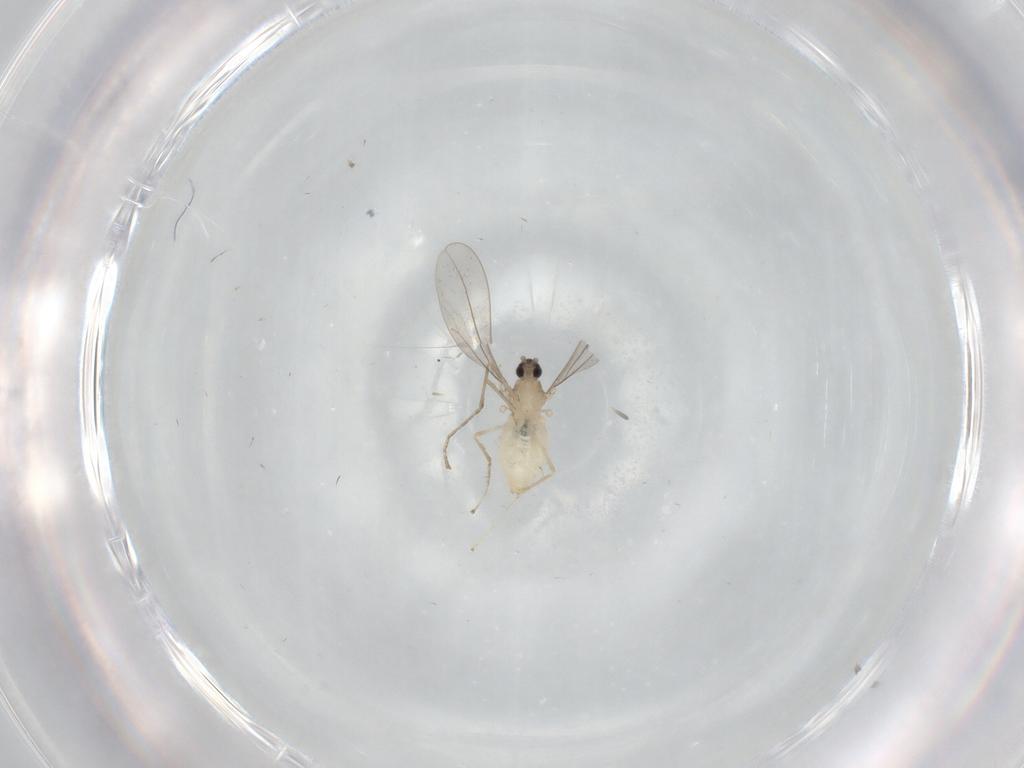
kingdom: Animalia
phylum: Arthropoda
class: Insecta
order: Diptera
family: Cecidomyiidae
